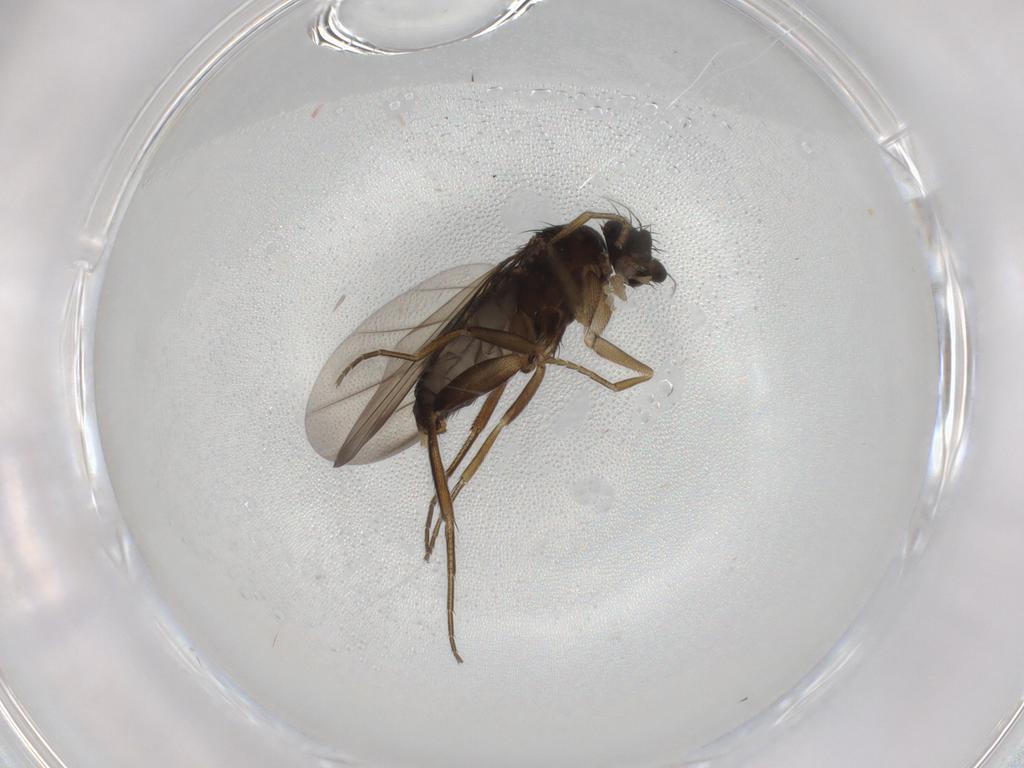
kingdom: Animalia
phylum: Arthropoda
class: Insecta
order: Diptera
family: Phoridae
